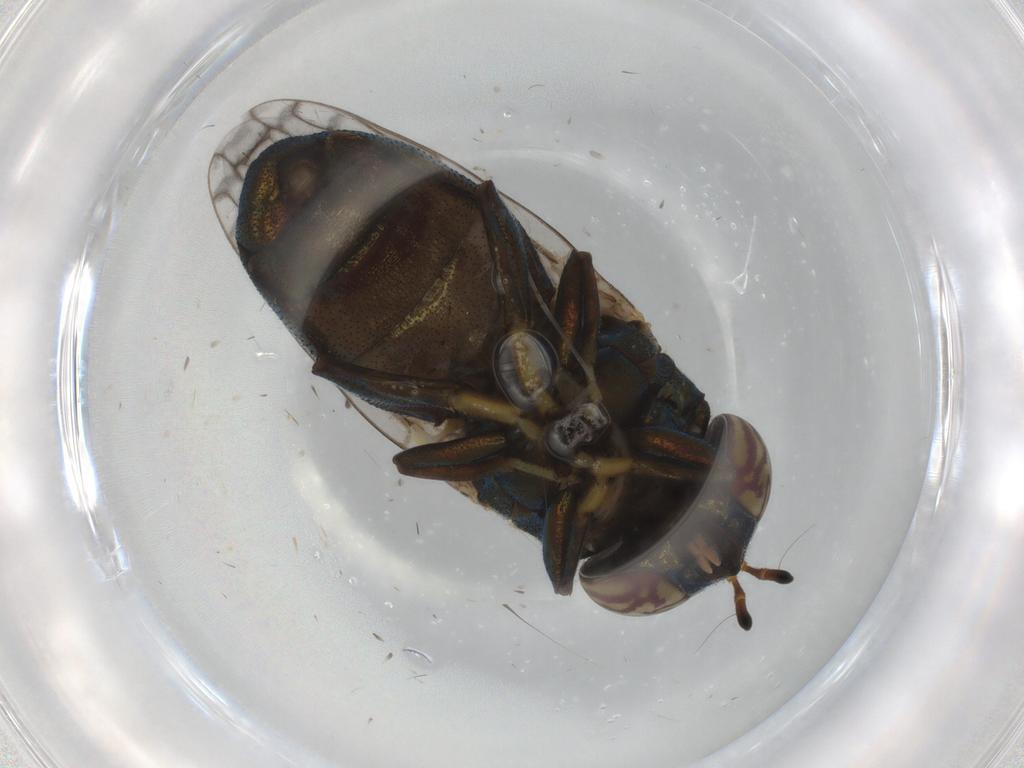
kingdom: Animalia
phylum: Arthropoda
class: Insecta
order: Diptera
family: Syrphidae
